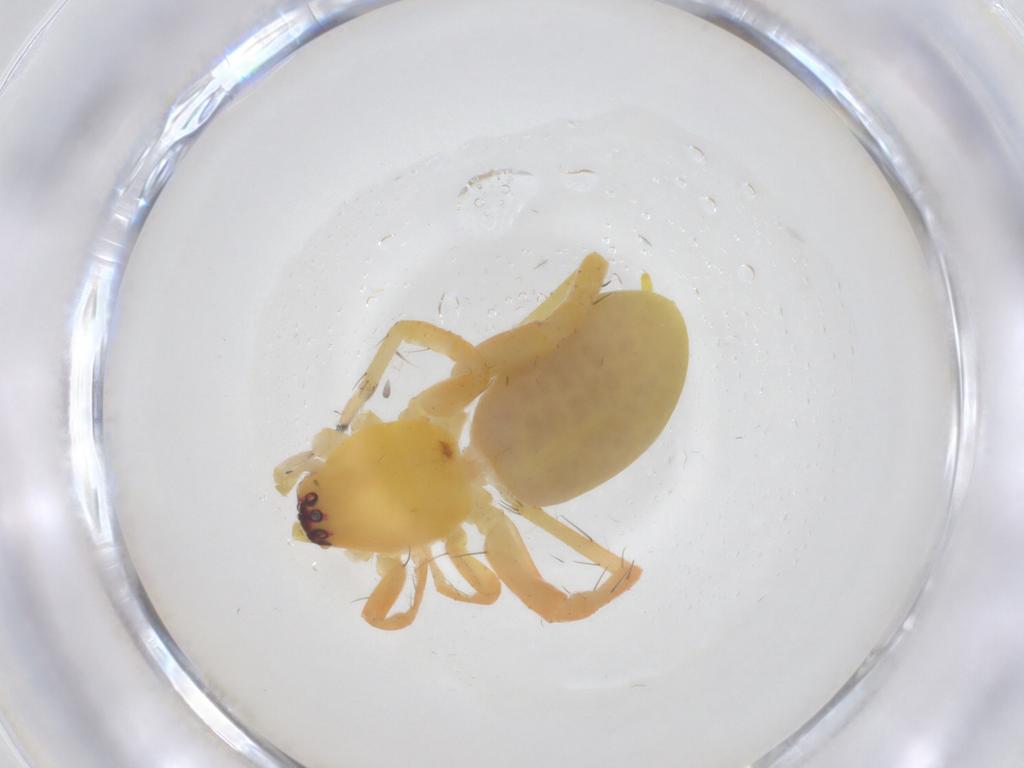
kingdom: Animalia
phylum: Arthropoda
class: Arachnida
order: Araneae
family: Anyphaenidae
